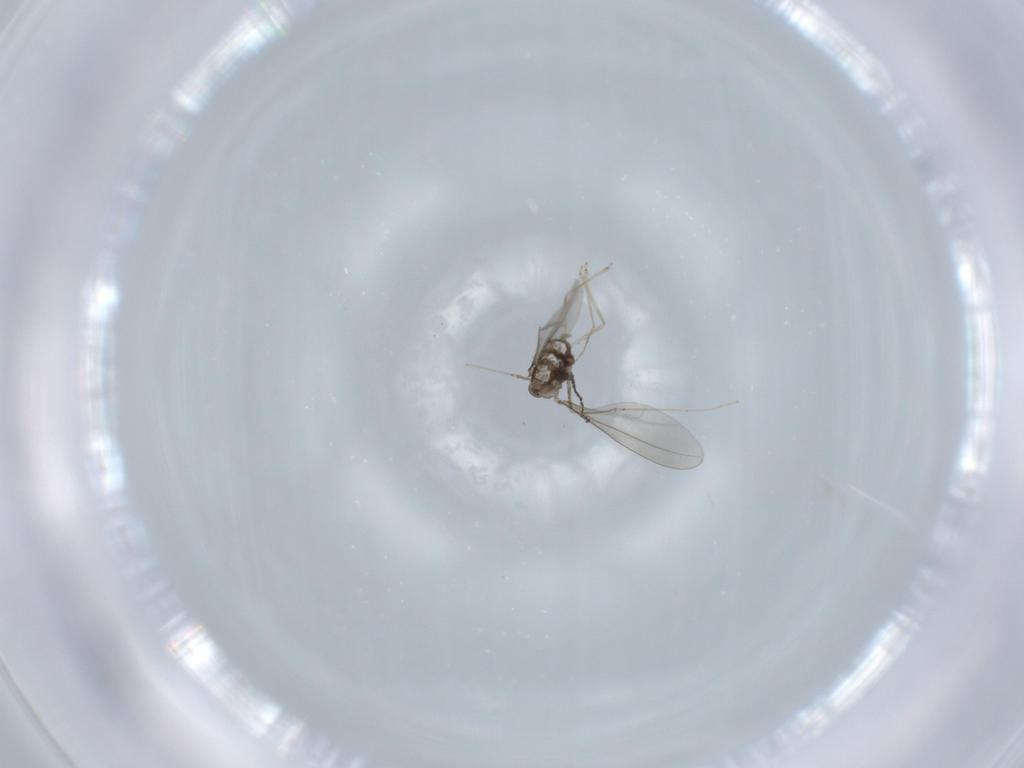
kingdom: Animalia
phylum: Arthropoda
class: Insecta
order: Diptera
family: Cecidomyiidae
